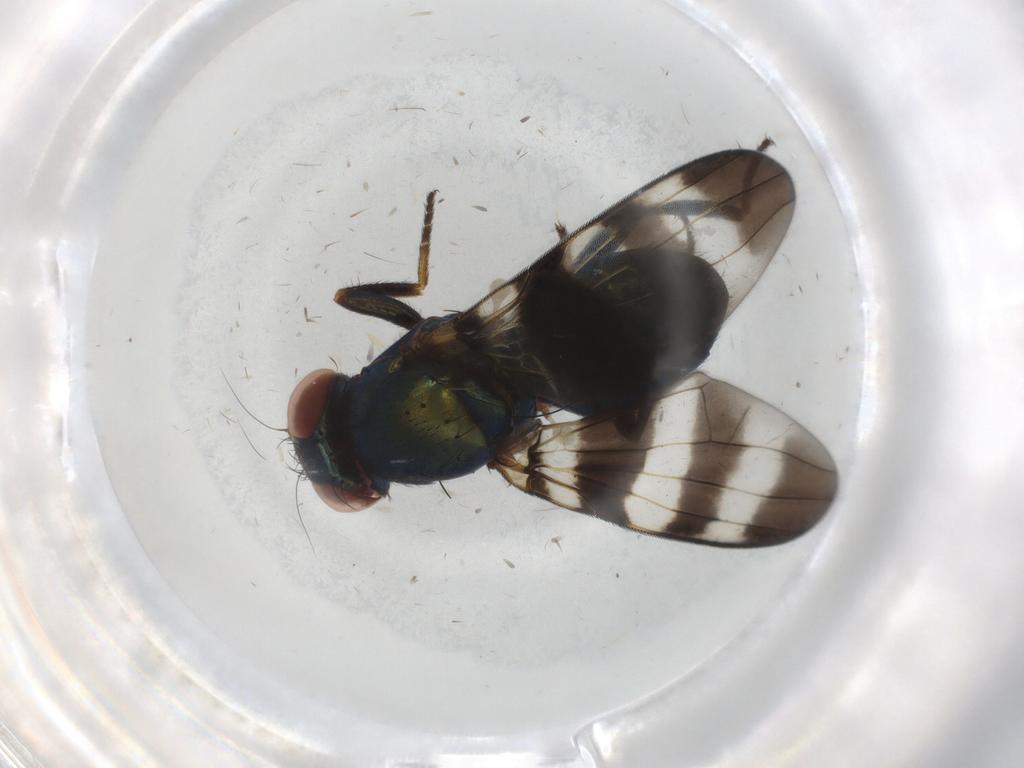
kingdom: Animalia
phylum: Arthropoda
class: Insecta
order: Diptera
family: Ulidiidae
